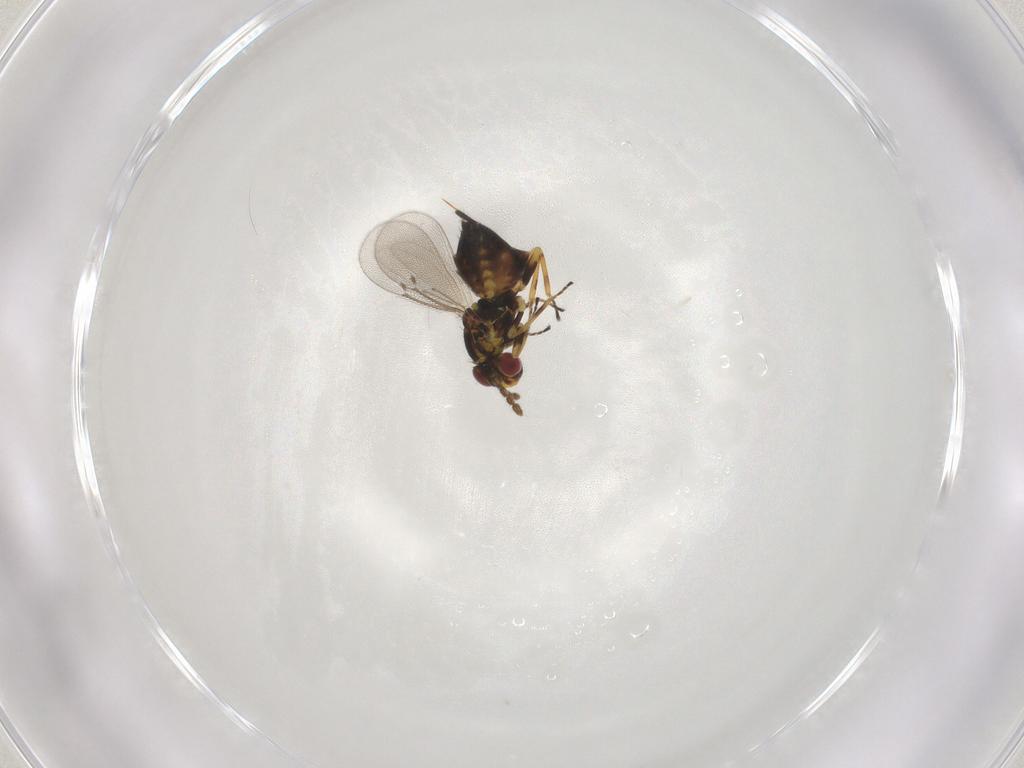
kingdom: Animalia
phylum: Arthropoda
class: Insecta
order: Hymenoptera
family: Eulophidae
